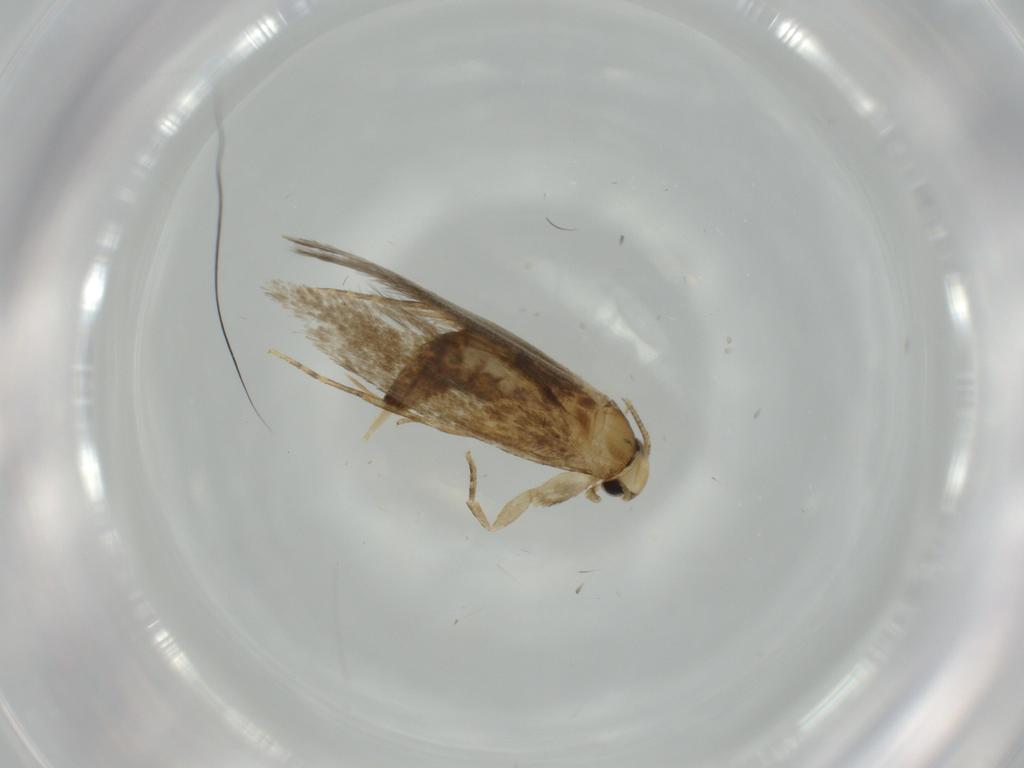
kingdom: Animalia
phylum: Arthropoda
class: Insecta
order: Lepidoptera
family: Tineidae
